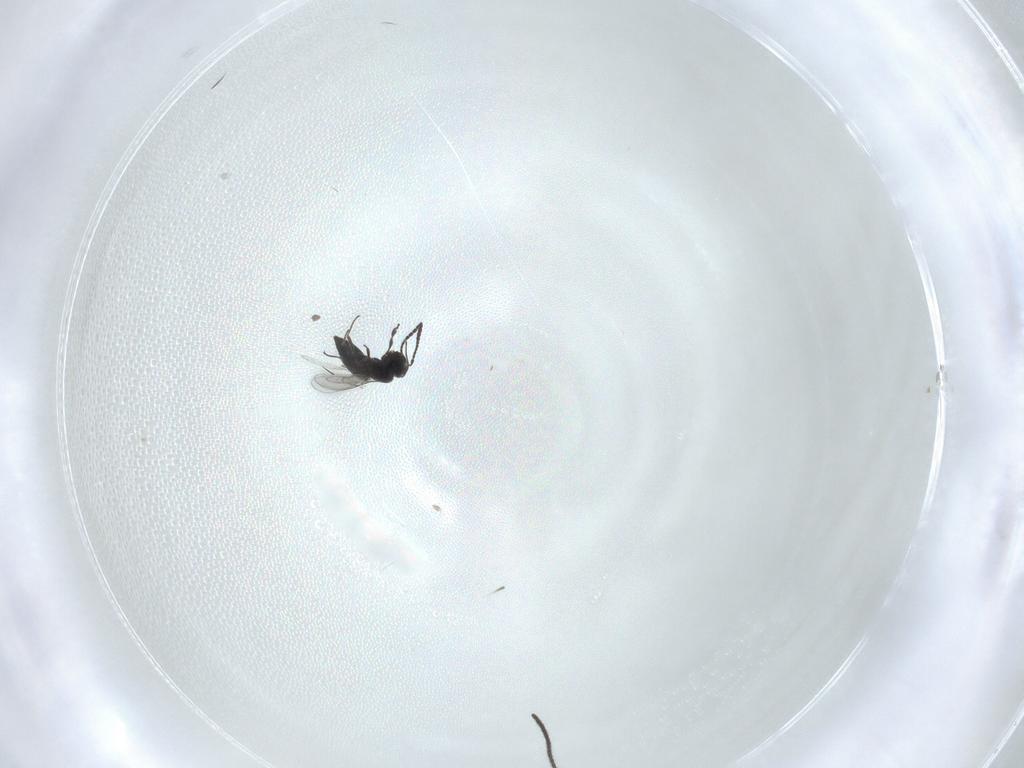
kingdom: Animalia
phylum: Arthropoda
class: Insecta
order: Hymenoptera
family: Scelionidae
